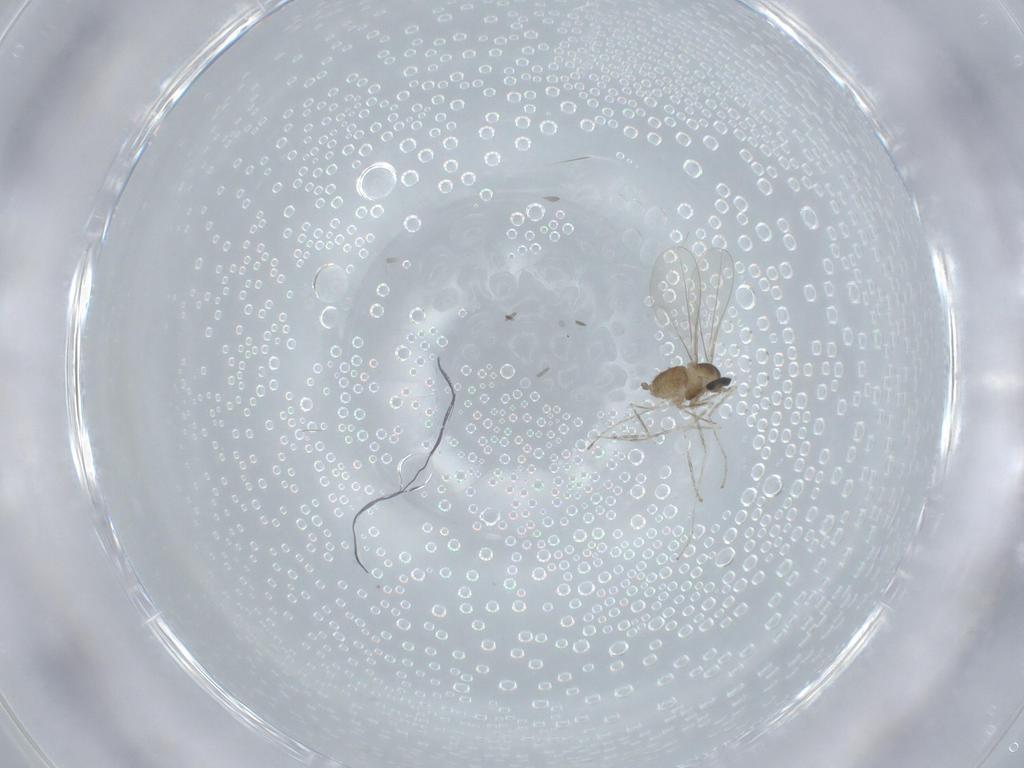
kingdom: Animalia
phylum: Arthropoda
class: Insecta
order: Diptera
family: Cecidomyiidae
